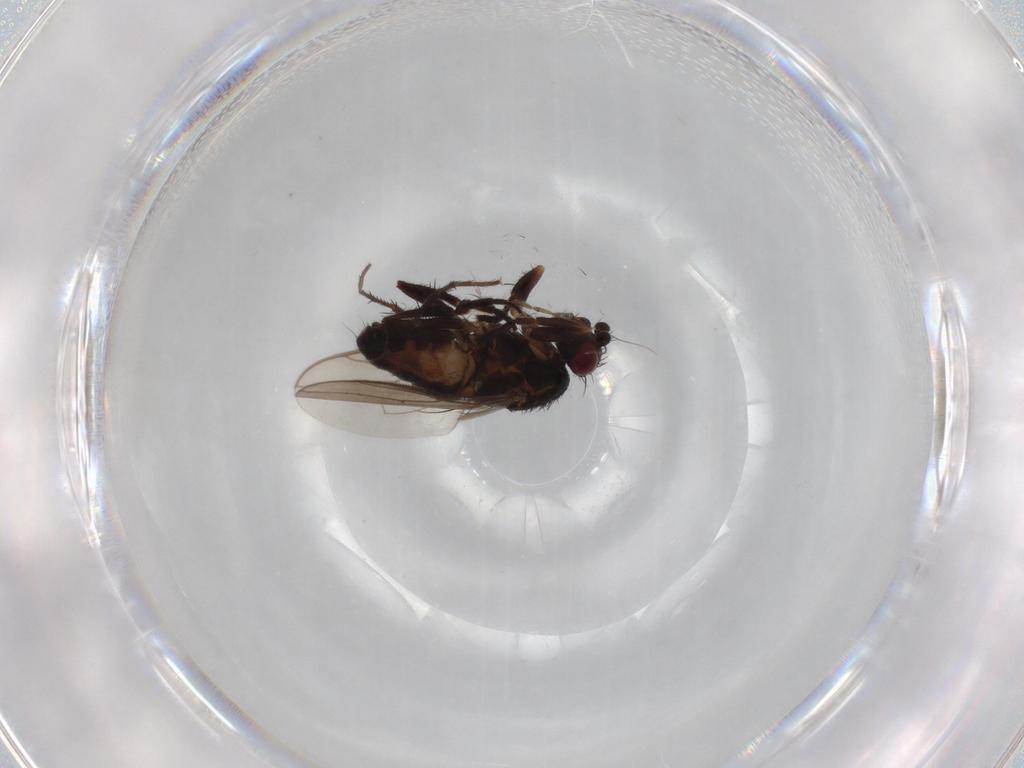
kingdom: Animalia
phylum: Arthropoda
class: Insecta
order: Diptera
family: Sphaeroceridae
